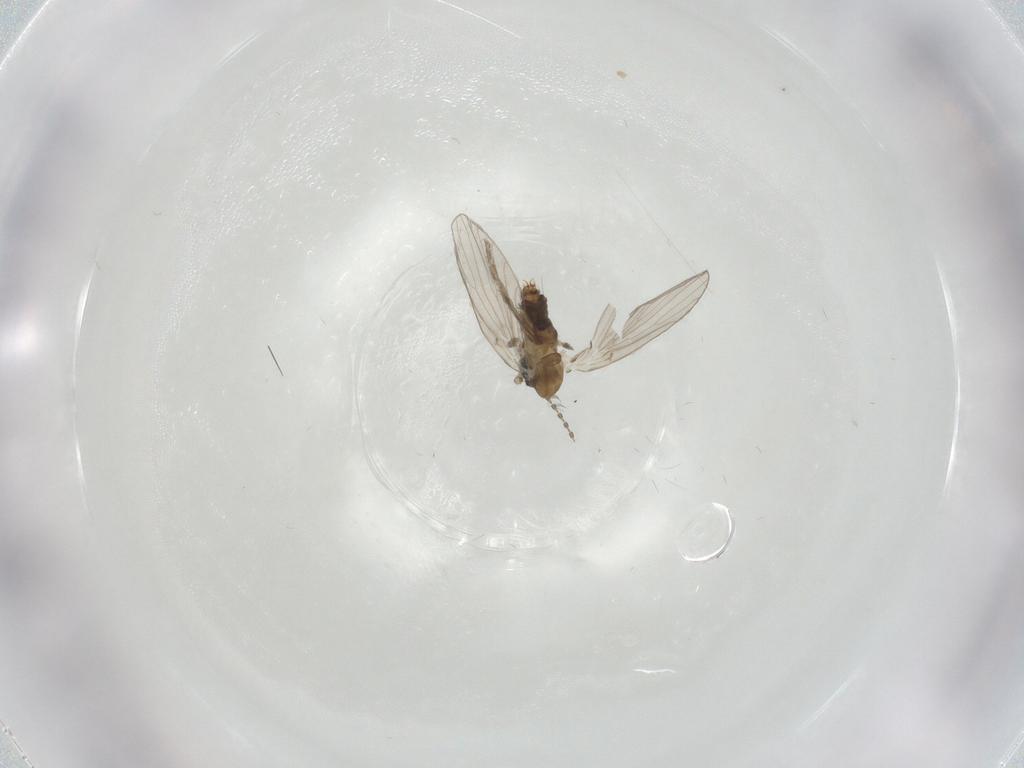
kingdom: Animalia
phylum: Arthropoda
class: Insecta
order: Diptera
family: Psychodidae
